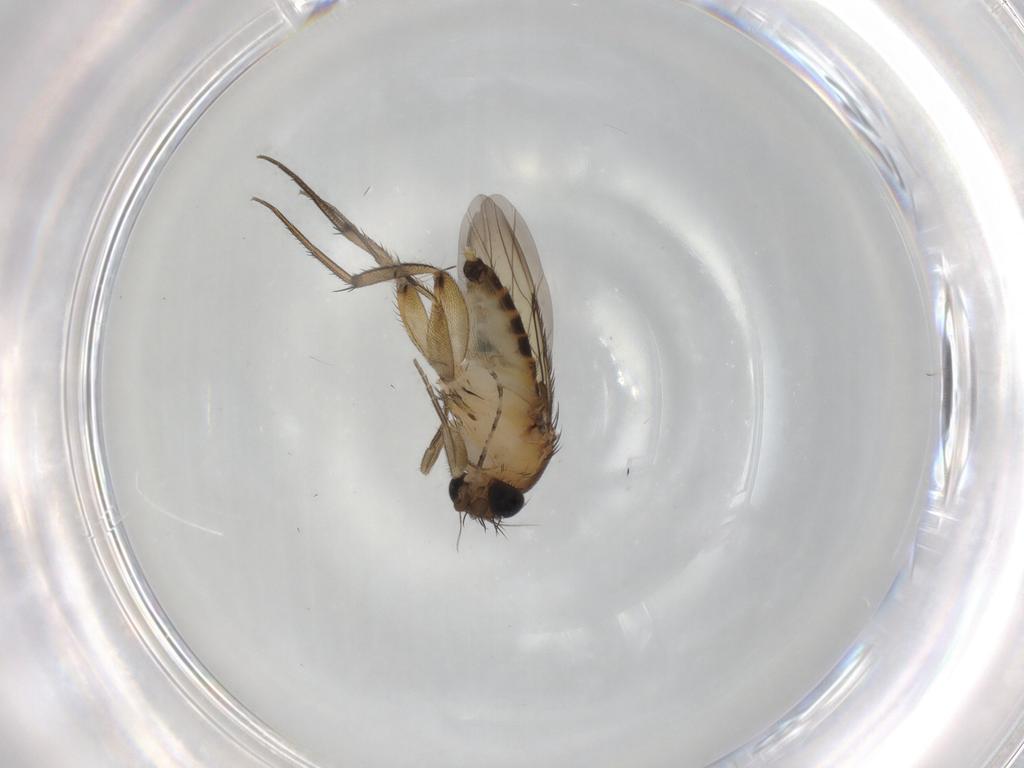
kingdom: Animalia
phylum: Arthropoda
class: Insecta
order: Diptera
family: Phoridae
